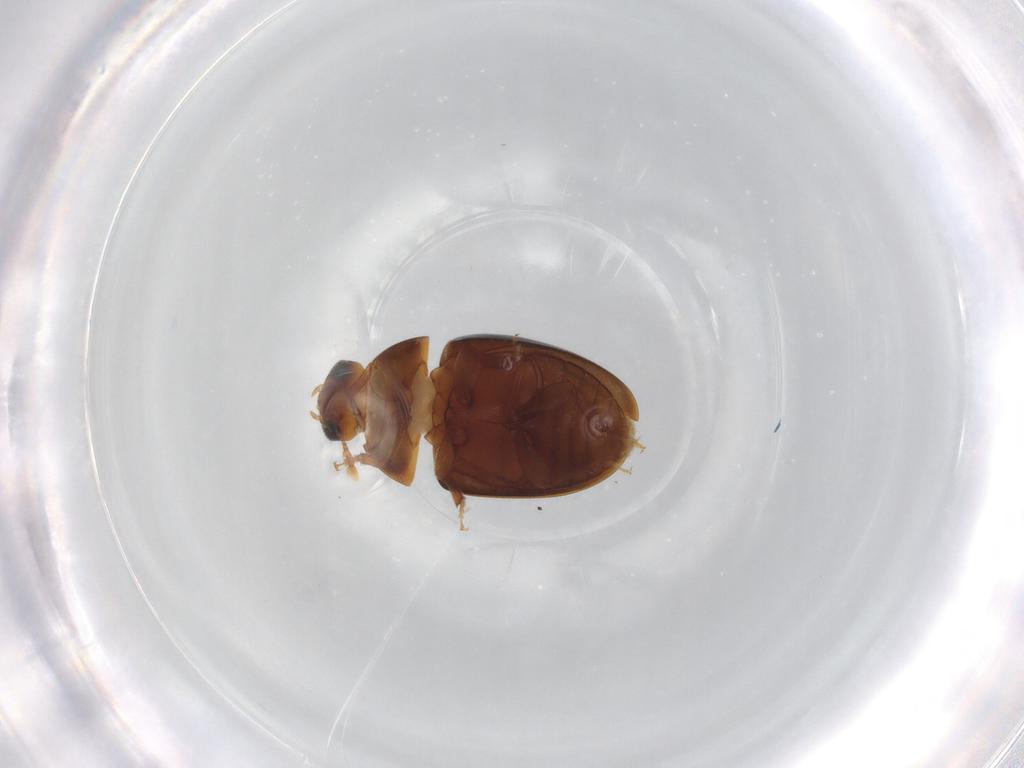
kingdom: Animalia
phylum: Arthropoda
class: Insecta
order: Coleoptera
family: Phalacridae
